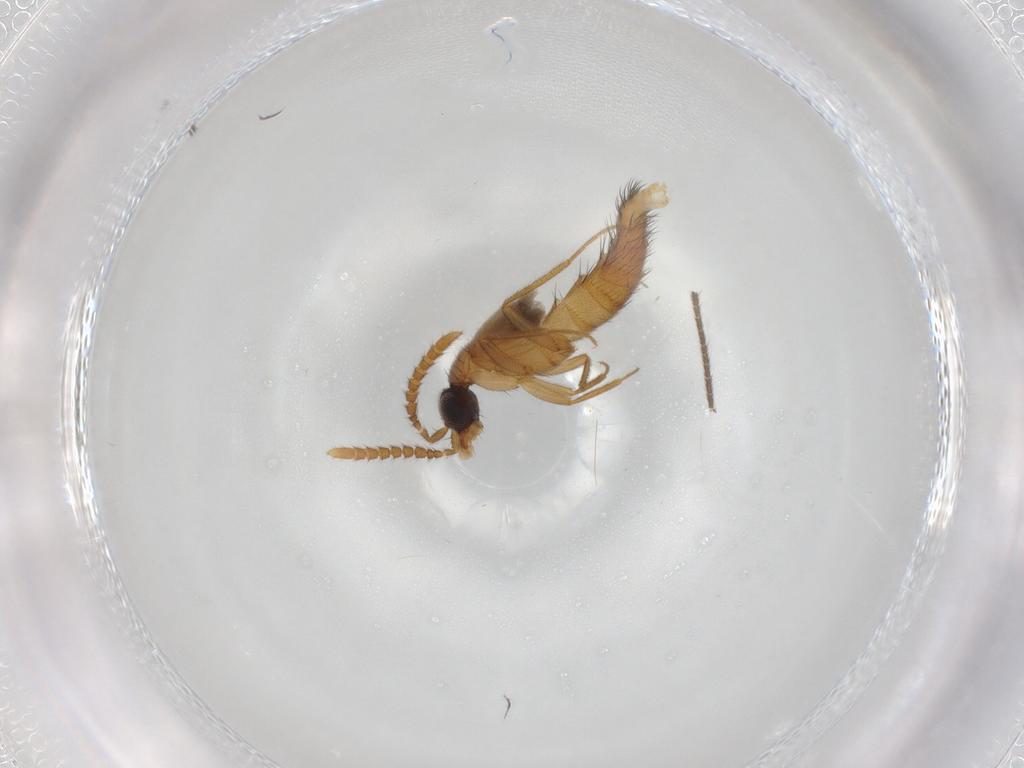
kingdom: Animalia
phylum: Arthropoda
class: Insecta
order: Coleoptera
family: Staphylinidae
